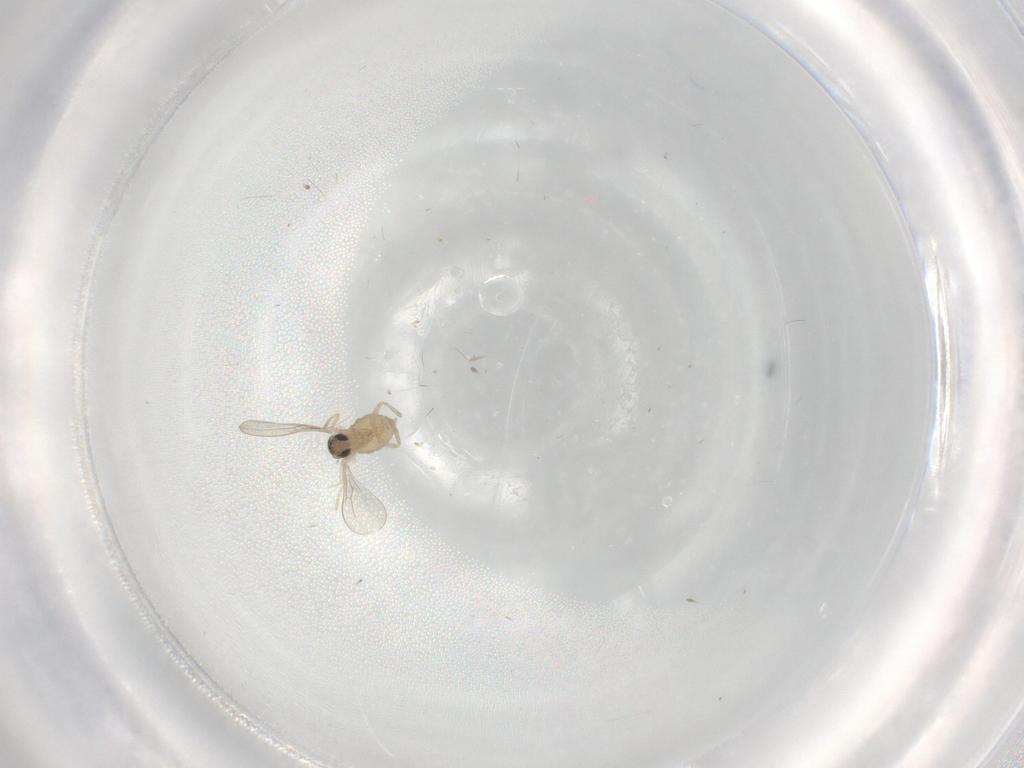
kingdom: Animalia
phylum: Arthropoda
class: Insecta
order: Diptera
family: Cecidomyiidae
